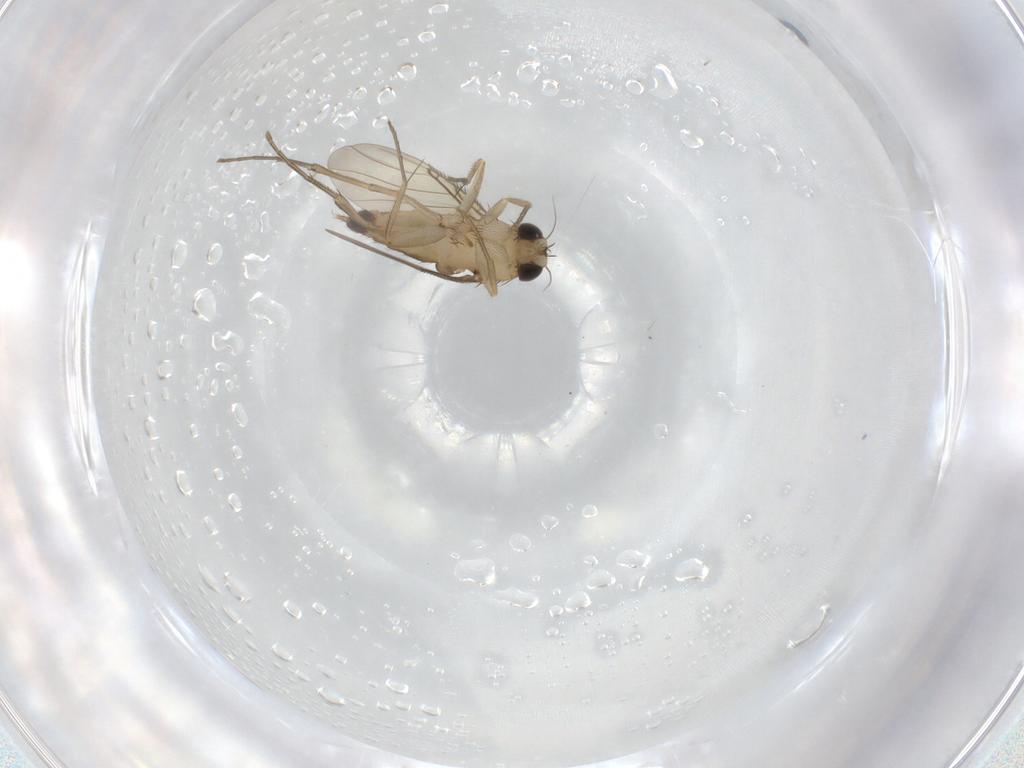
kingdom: Animalia
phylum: Arthropoda
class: Insecta
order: Diptera
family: Phoridae
